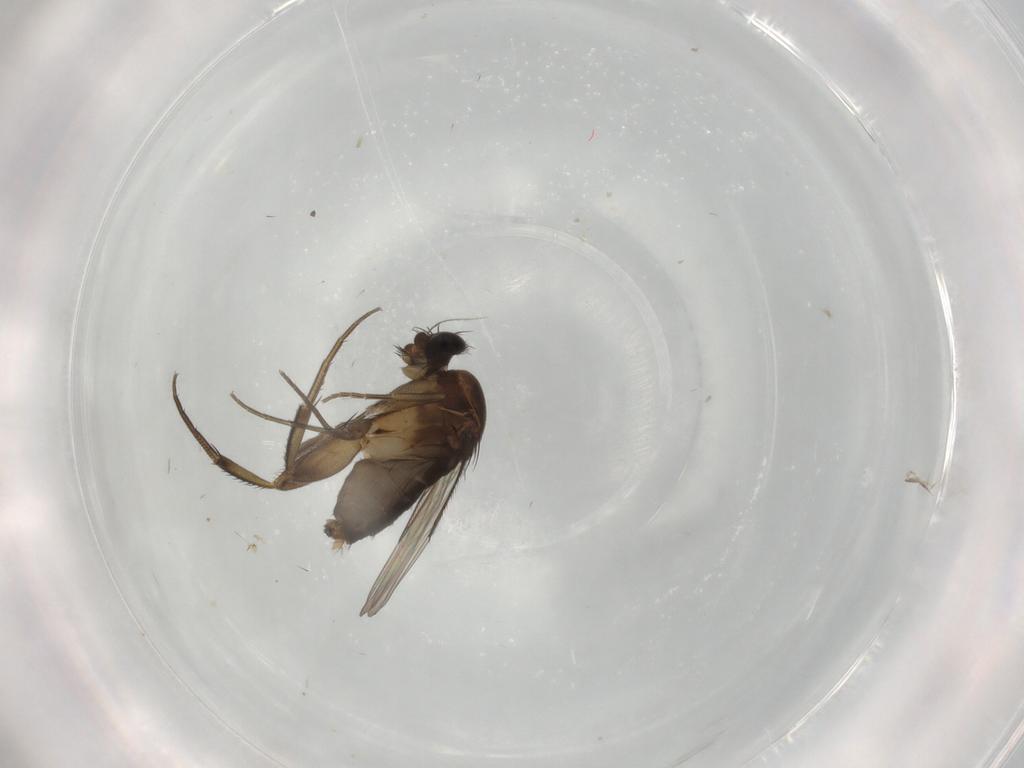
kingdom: Animalia
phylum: Arthropoda
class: Insecta
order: Diptera
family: Phoridae
